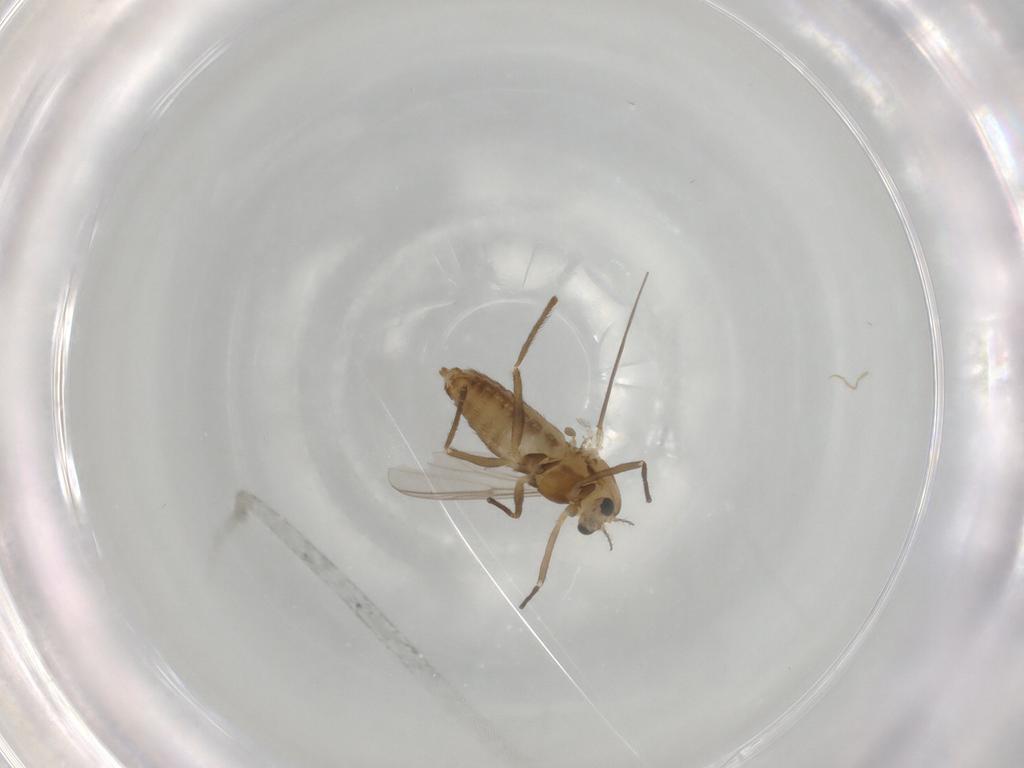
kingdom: Animalia
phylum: Arthropoda
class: Insecta
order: Diptera
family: Chironomidae
